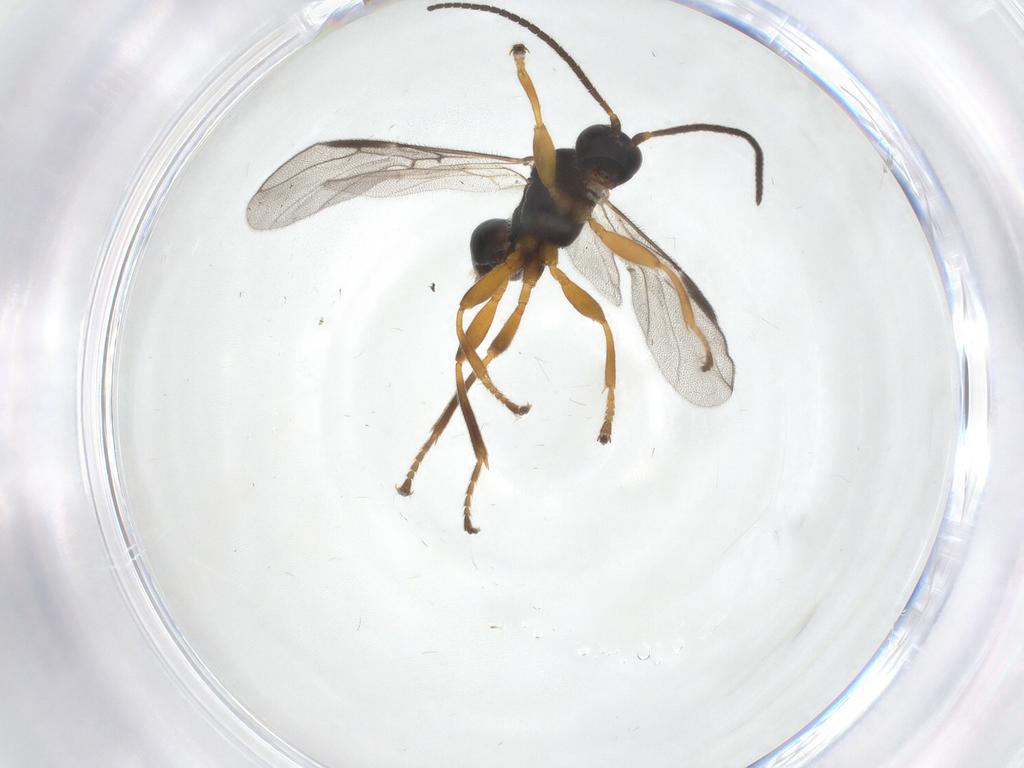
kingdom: Animalia
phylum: Arthropoda
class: Insecta
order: Hymenoptera
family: Braconidae
